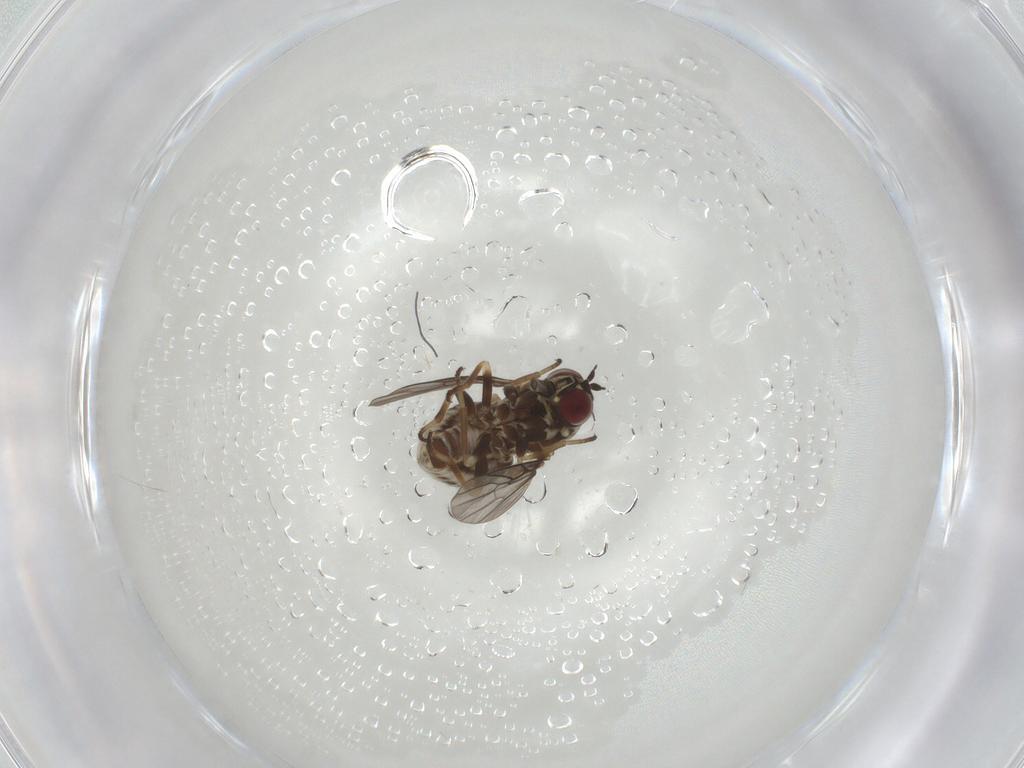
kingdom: Animalia
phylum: Arthropoda
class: Insecta
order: Diptera
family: Bombyliidae
